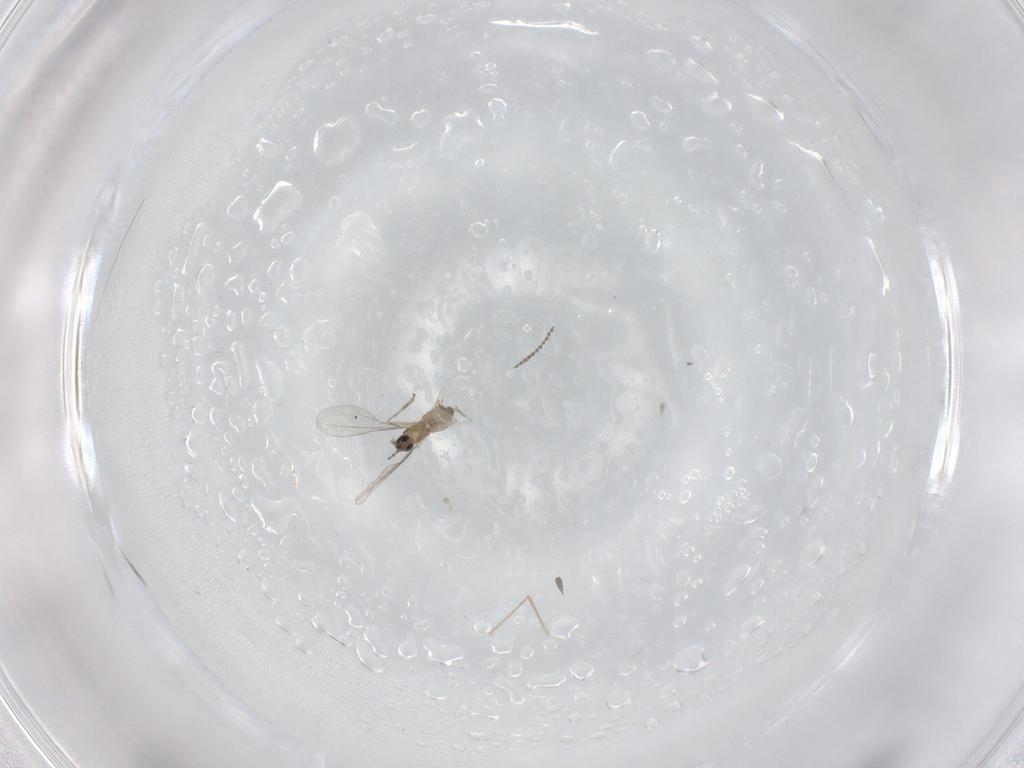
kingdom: Animalia
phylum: Arthropoda
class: Insecta
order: Diptera
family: Cecidomyiidae
